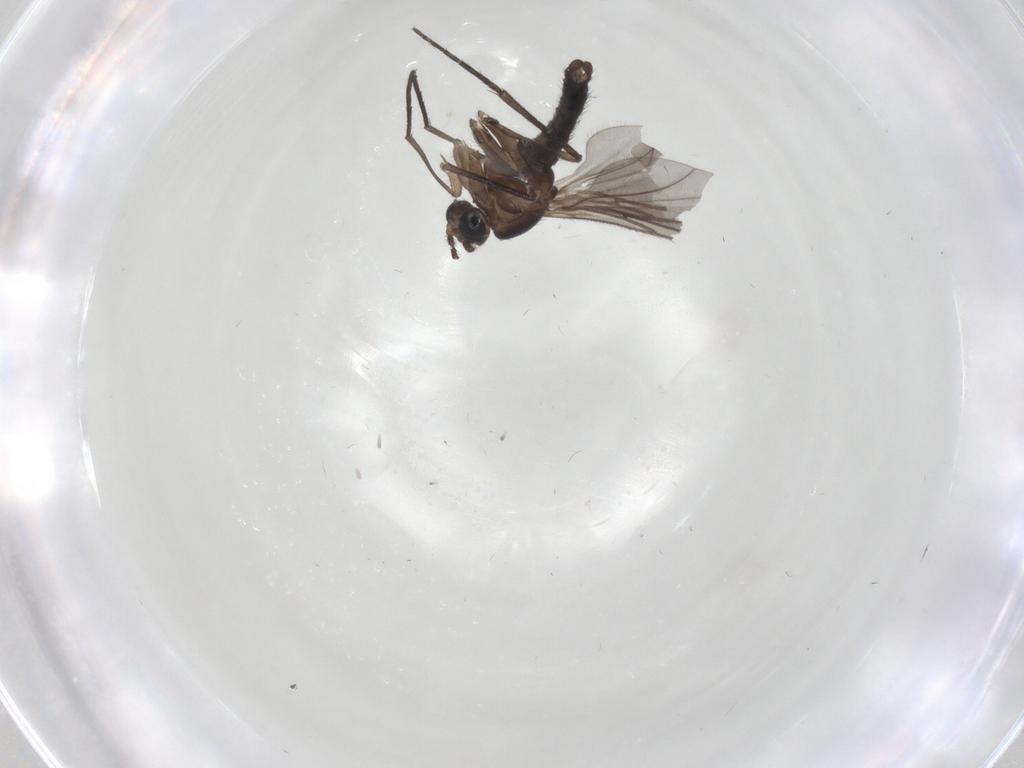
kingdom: Animalia
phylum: Arthropoda
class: Insecta
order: Diptera
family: Sciaridae
